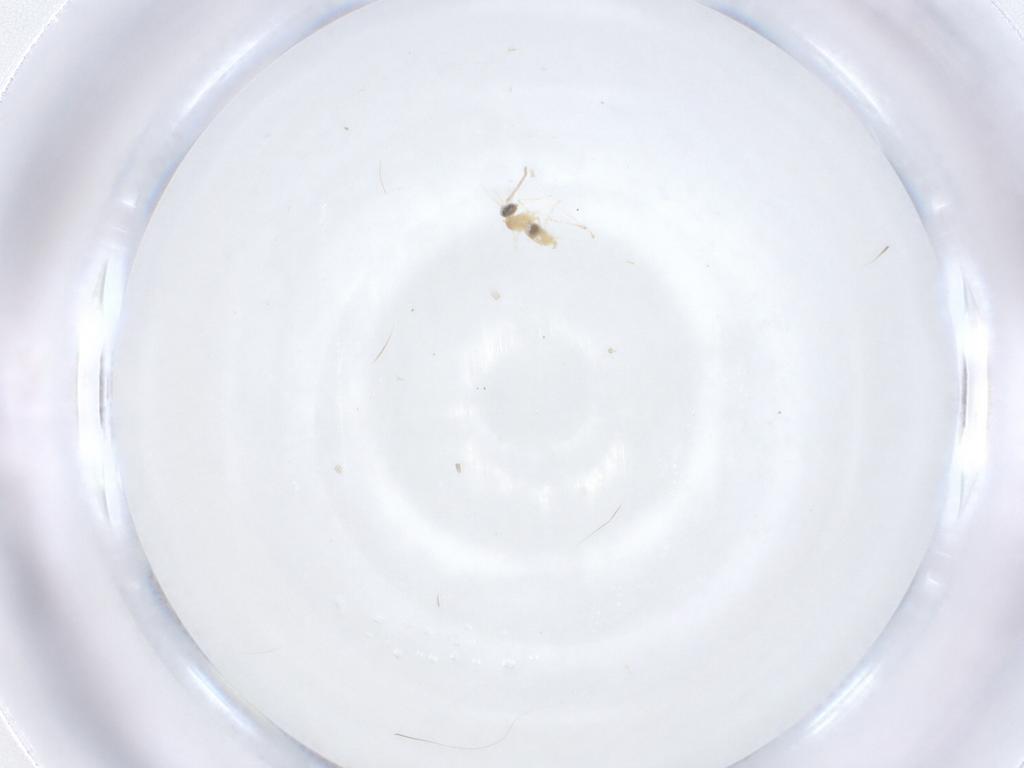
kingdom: Animalia
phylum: Arthropoda
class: Insecta
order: Diptera
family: Cecidomyiidae
